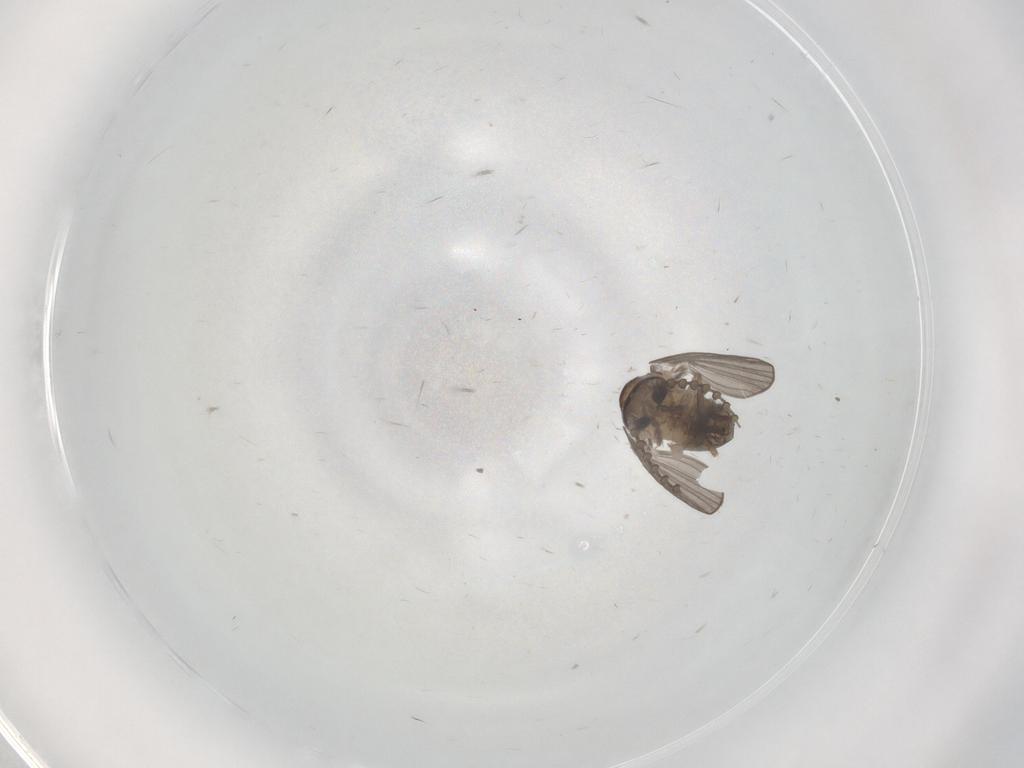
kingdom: Animalia
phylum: Arthropoda
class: Insecta
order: Diptera
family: Psychodidae
